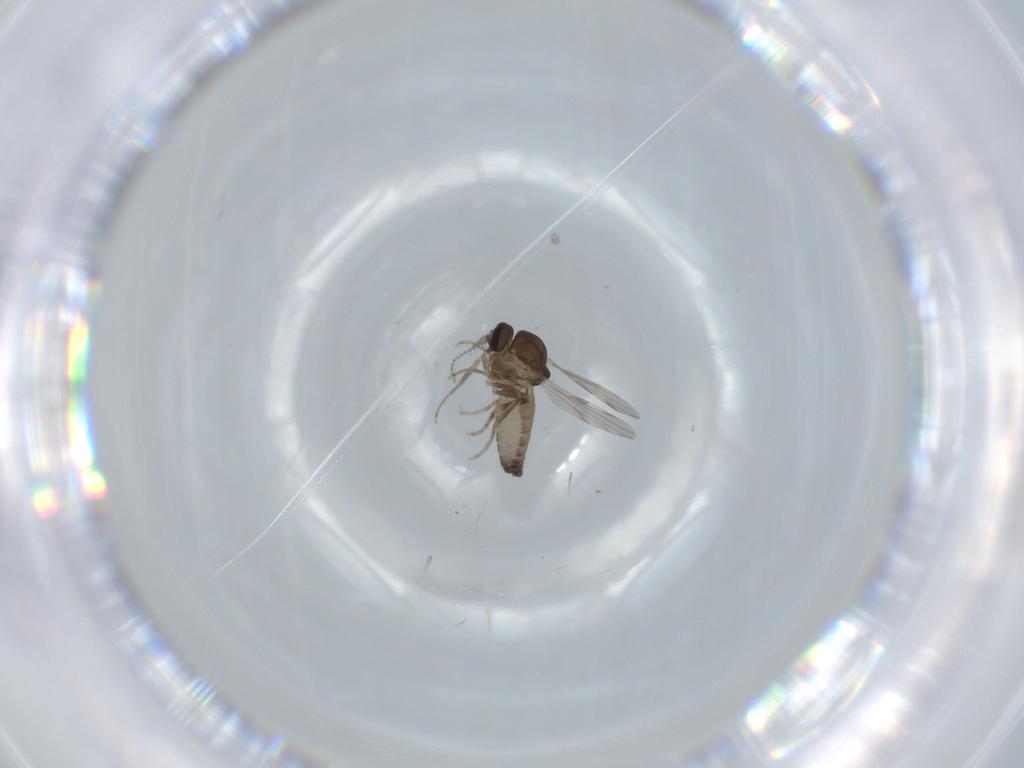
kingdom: Animalia
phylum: Arthropoda
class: Insecta
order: Diptera
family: Ceratopogonidae
